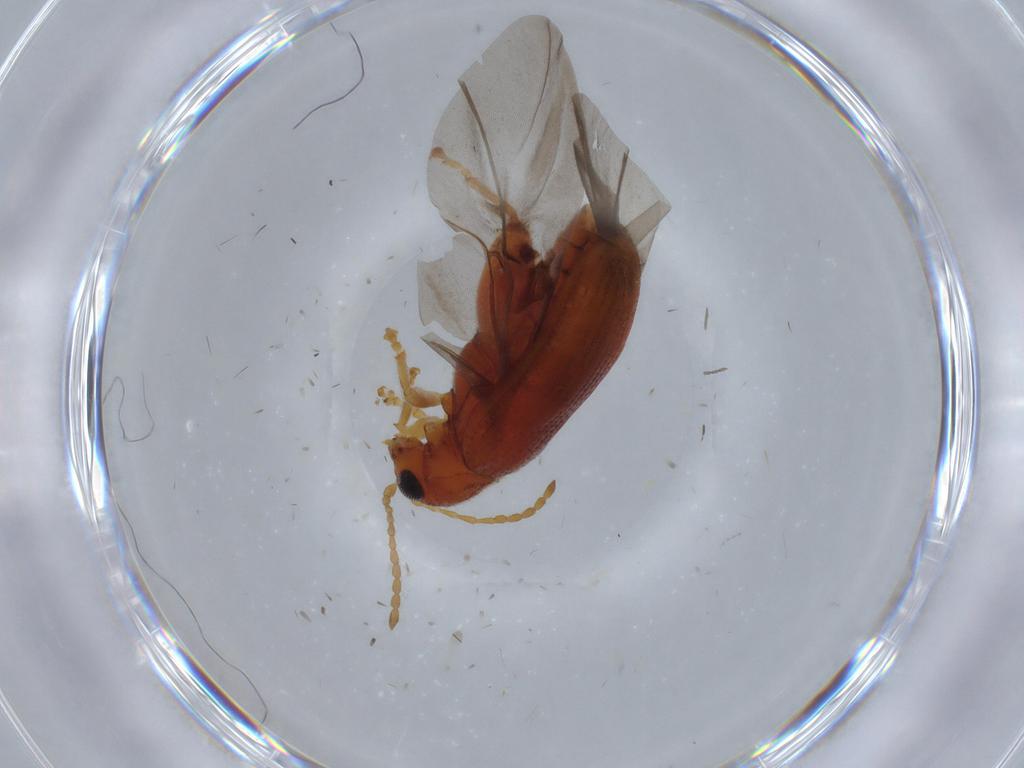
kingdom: Animalia
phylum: Arthropoda
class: Insecta
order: Coleoptera
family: Chrysomelidae
